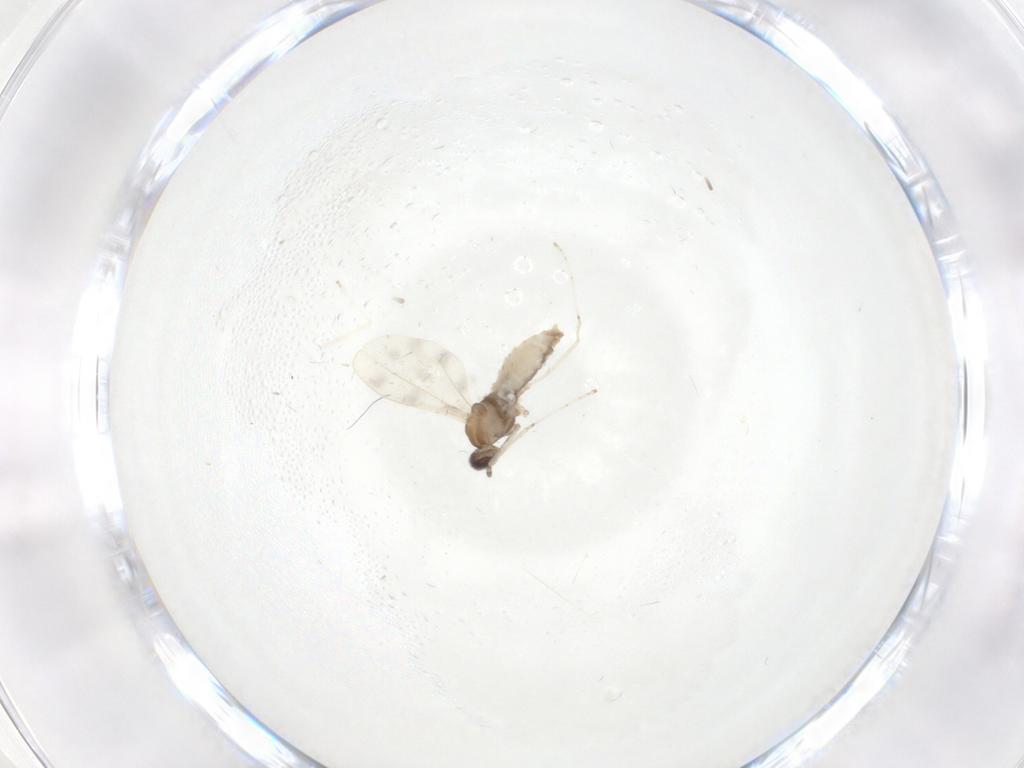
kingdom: Animalia
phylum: Arthropoda
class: Insecta
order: Diptera
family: Cecidomyiidae
